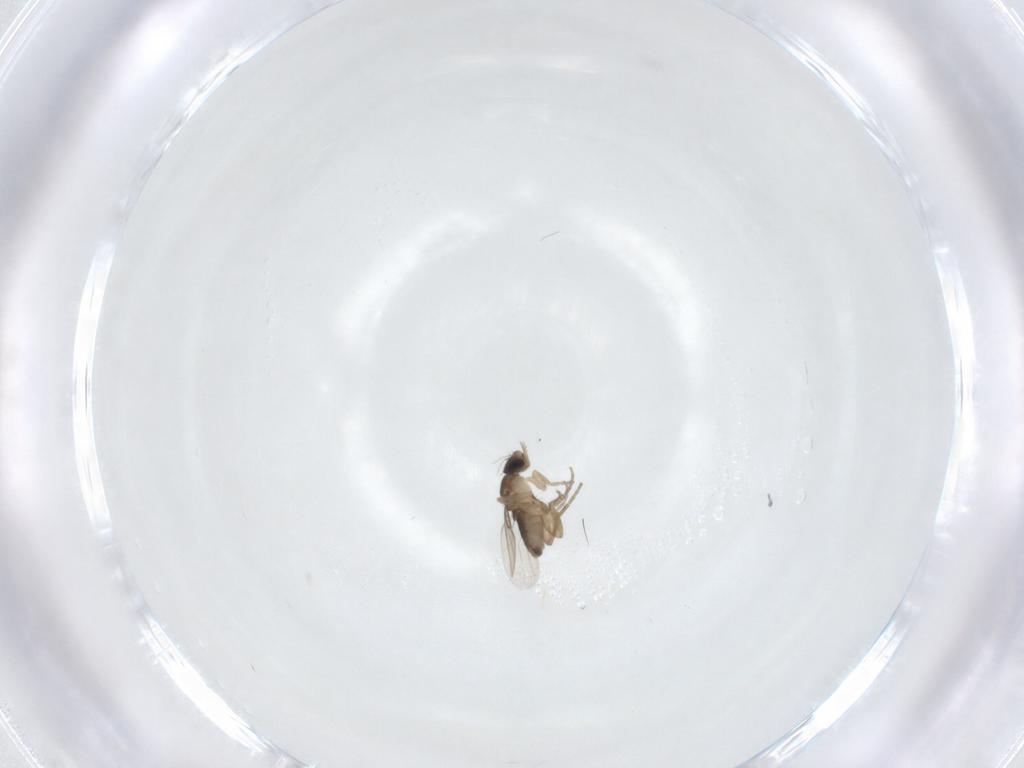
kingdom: Animalia
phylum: Arthropoda
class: Insecta
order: Diptera
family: Phoridae
